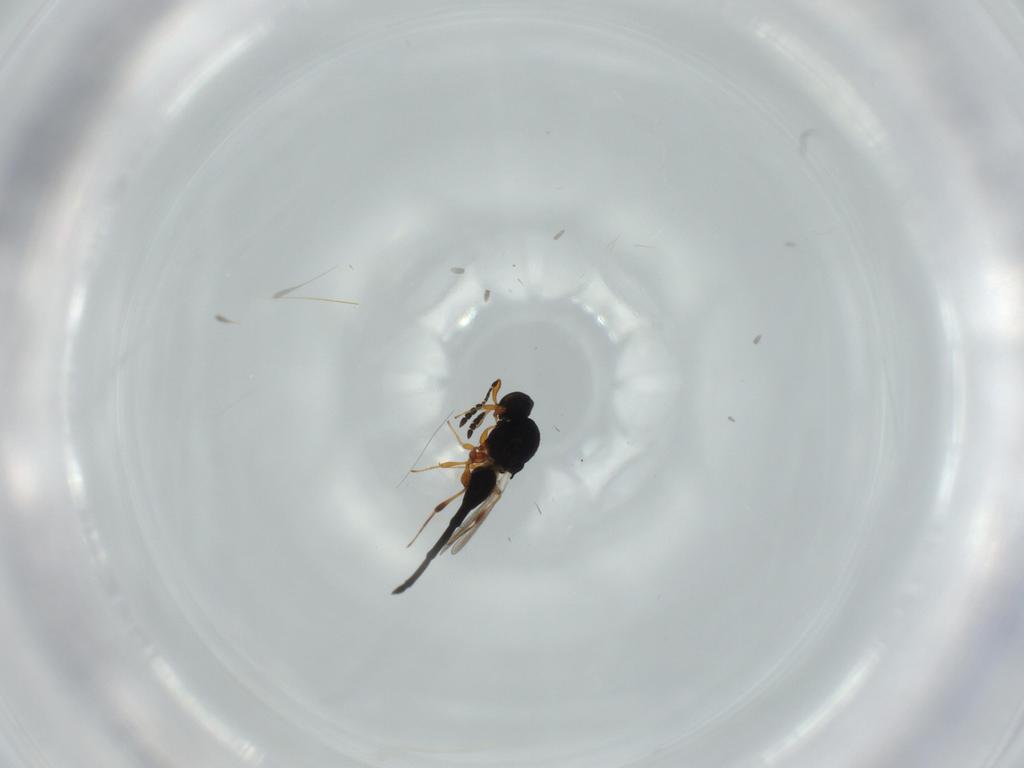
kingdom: Animalia
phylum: Arthropoda
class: Insecta
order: Hymenoptera
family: Platygastridae
